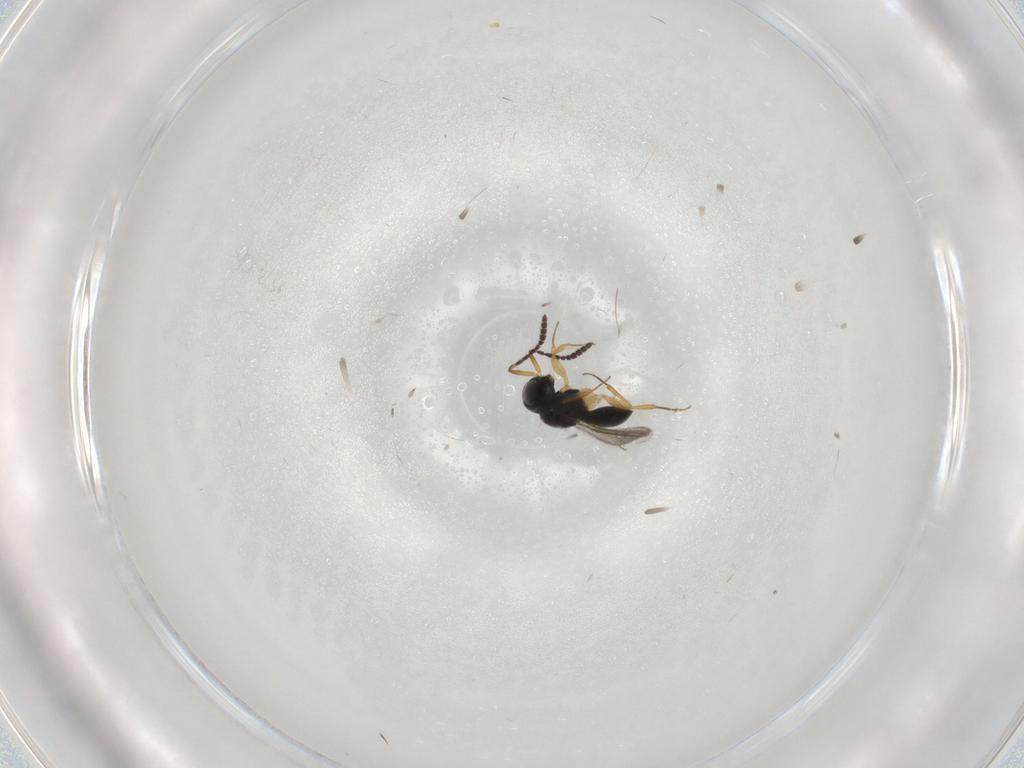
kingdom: Animalia
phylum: Arthropoda
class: Insecta
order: Hymenoptera
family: Scelionidae
